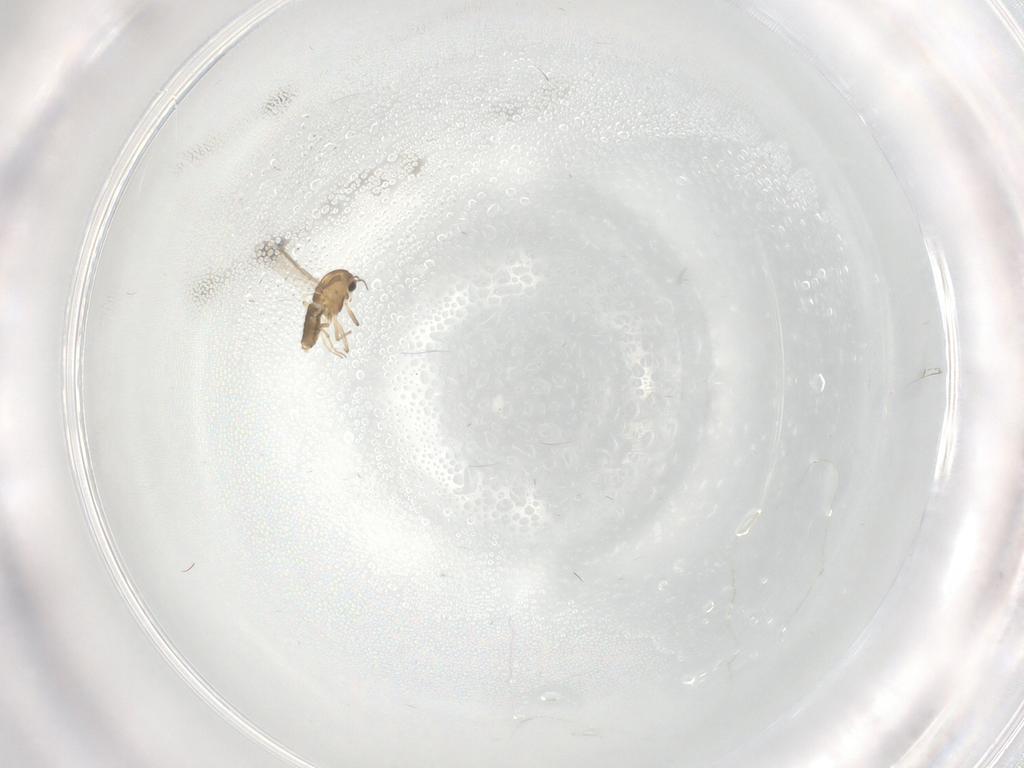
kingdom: Animalia
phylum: Arthropoda
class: Insecta
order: Diptera
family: Chironomidae
